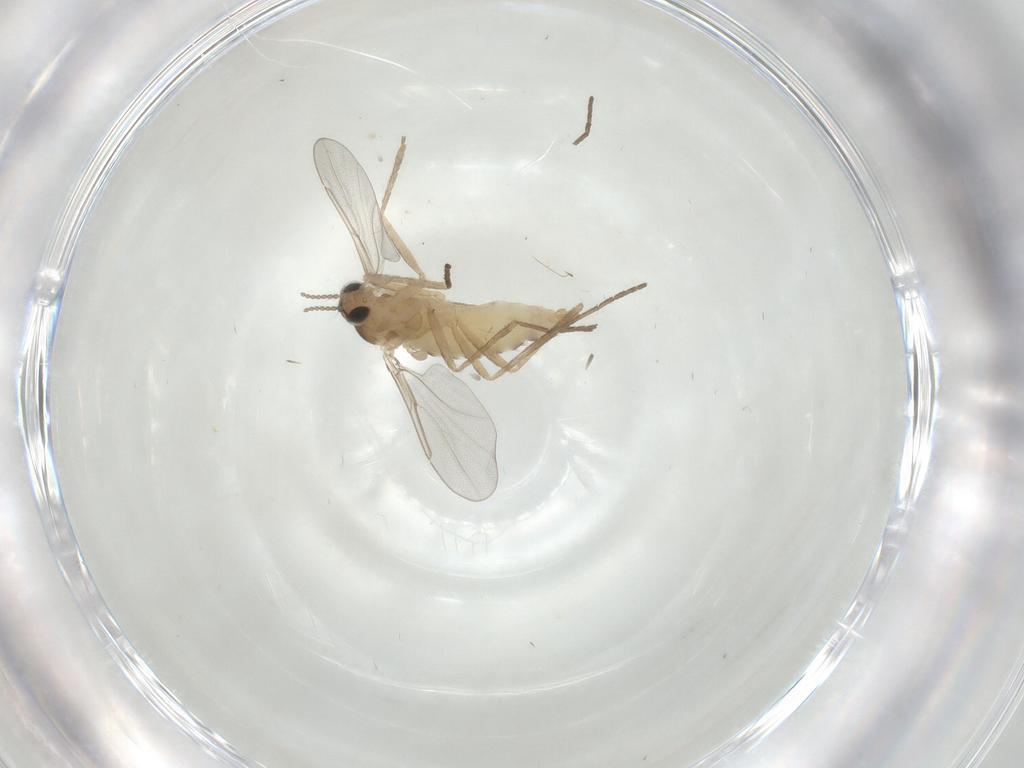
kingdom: Animalia
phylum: Arthropoda
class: Insecta
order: Diptera
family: Cecidomyiidae
